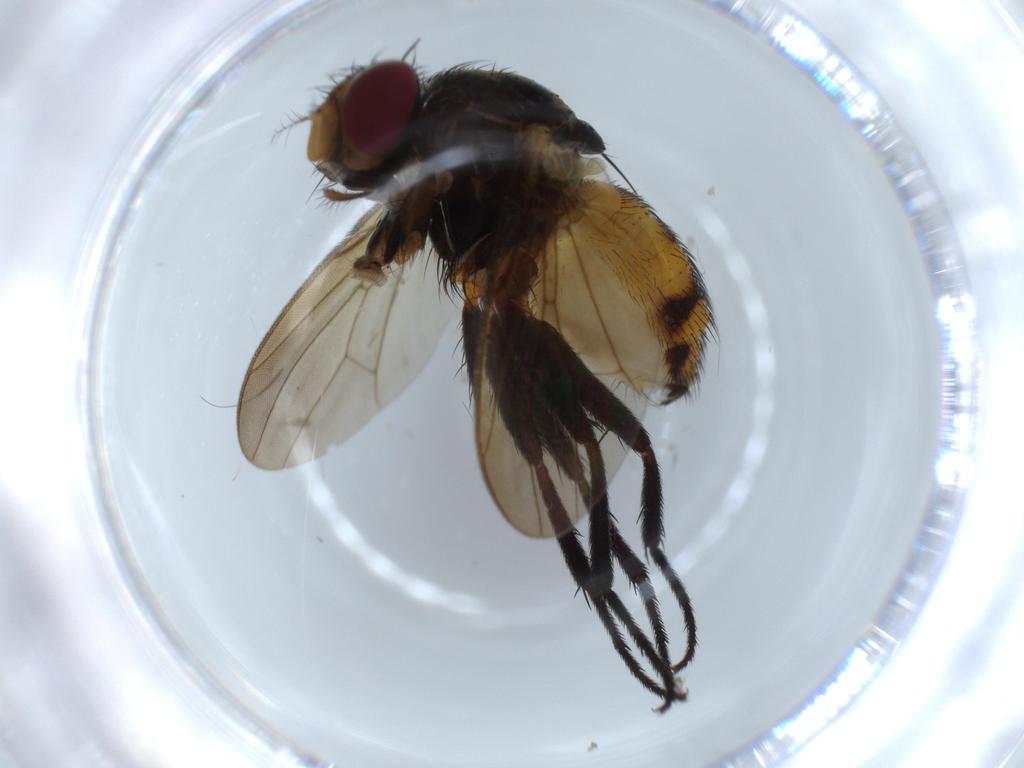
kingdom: Animalia
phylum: Arthropoda
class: Insecta
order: Diptera
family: Anthomyiidae
